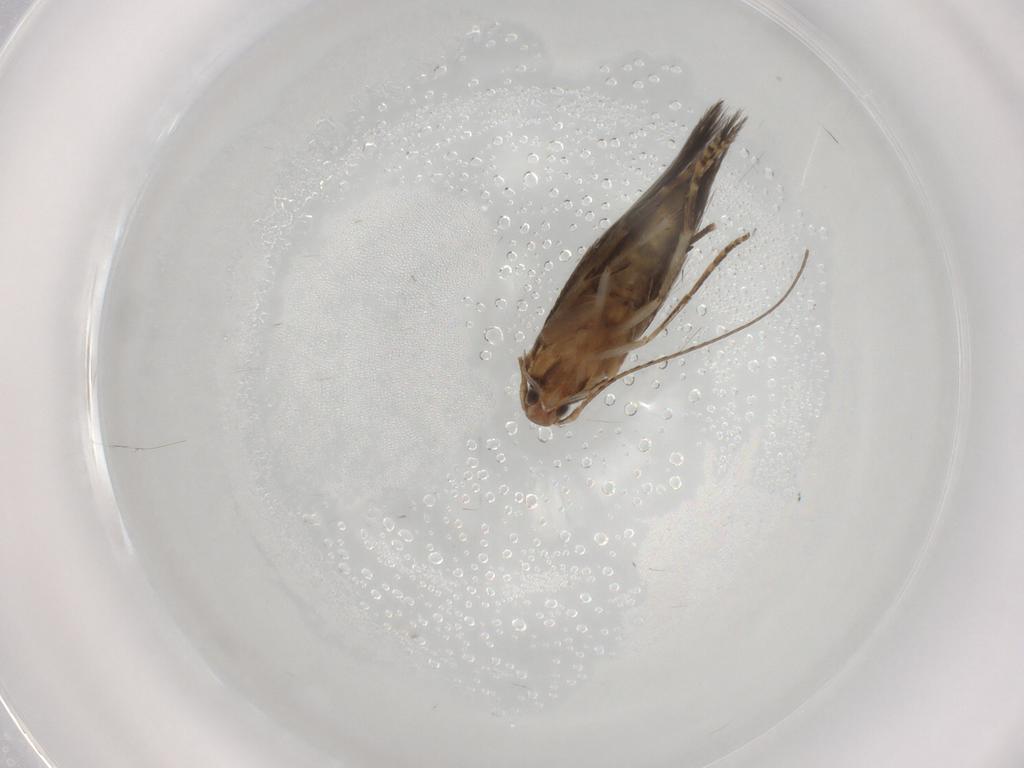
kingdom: Animalia
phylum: Arthropoda
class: Insecta
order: Lepidoptera
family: Coleophoridae
